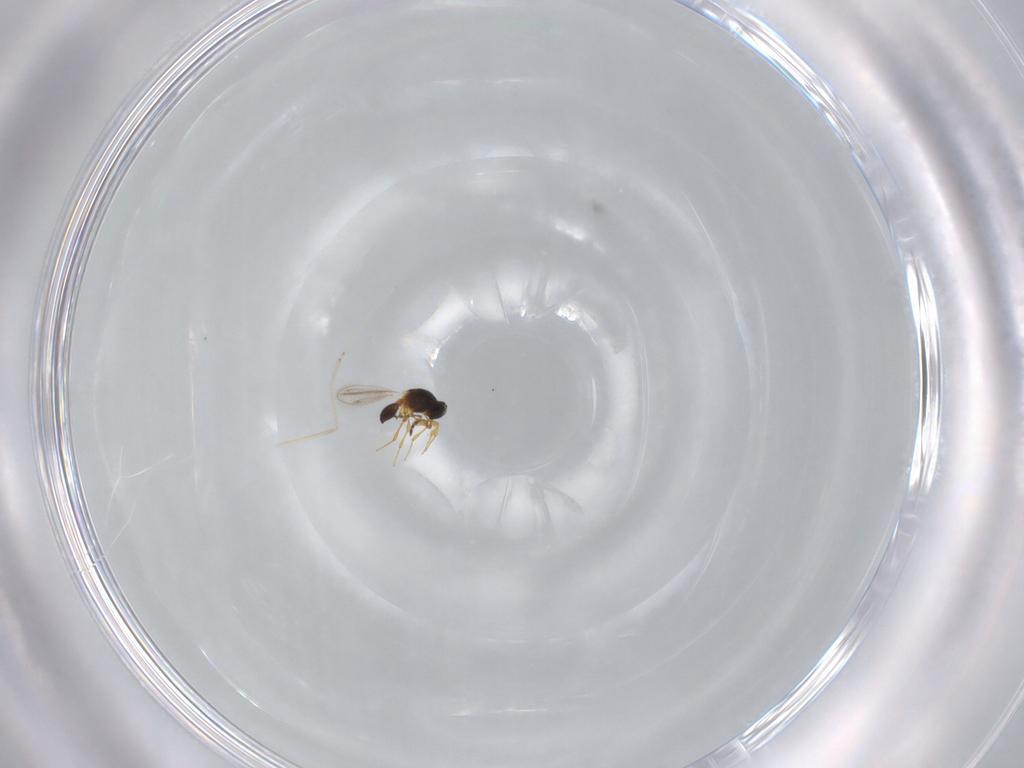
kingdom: Animalia
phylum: Arthropoda
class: Insecta
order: Hymenoptera
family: Platygastridae
